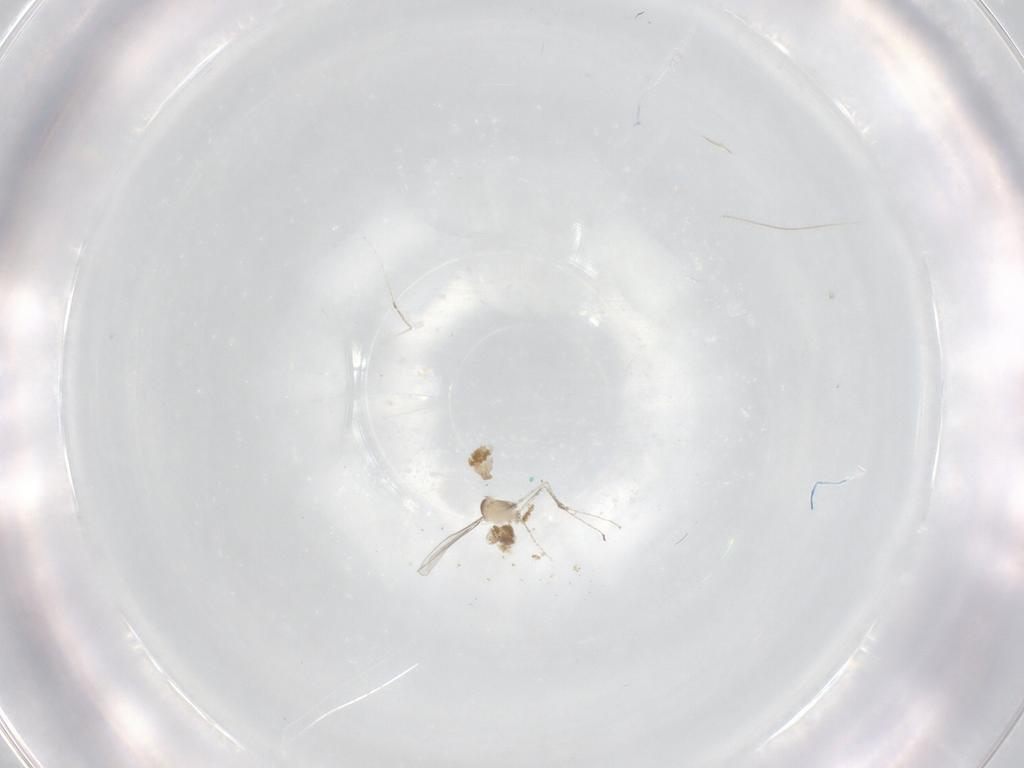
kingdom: Animalia
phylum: Arthropoda
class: Insecta
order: Diptera
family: Cecidomyiidae
